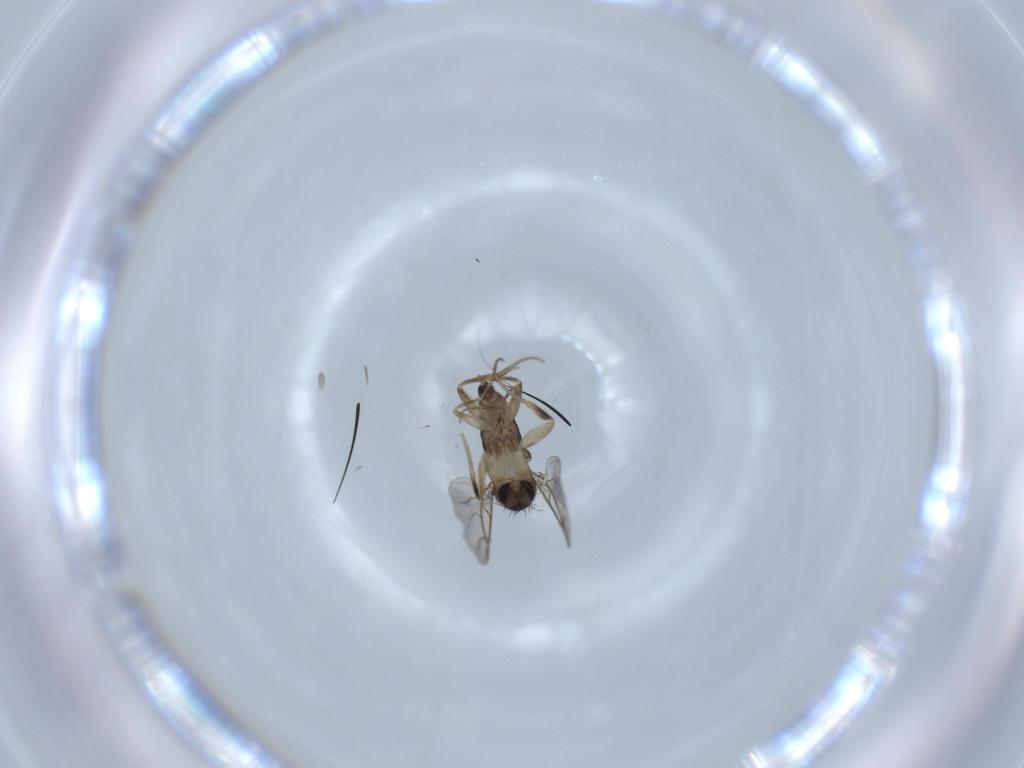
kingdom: Animalia
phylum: Arthropoda
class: Insecta
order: Diptera
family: Phoridae
